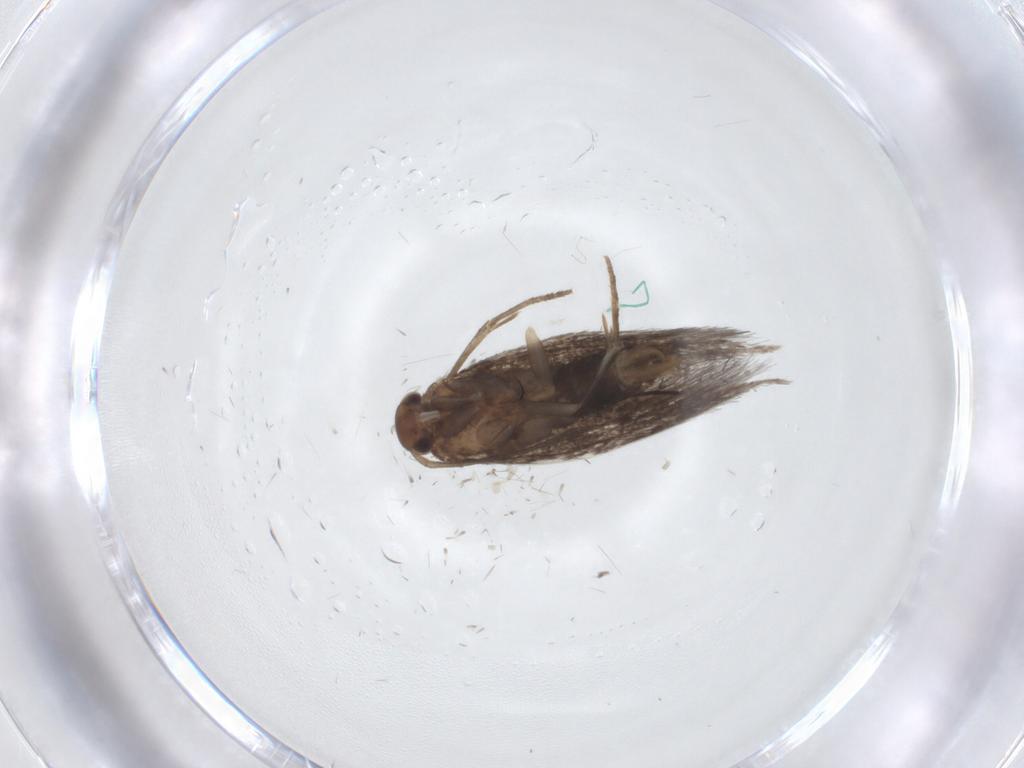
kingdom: Animalia
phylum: Arthropoda
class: Insecta
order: Lepidoptera
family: Elachistidae
